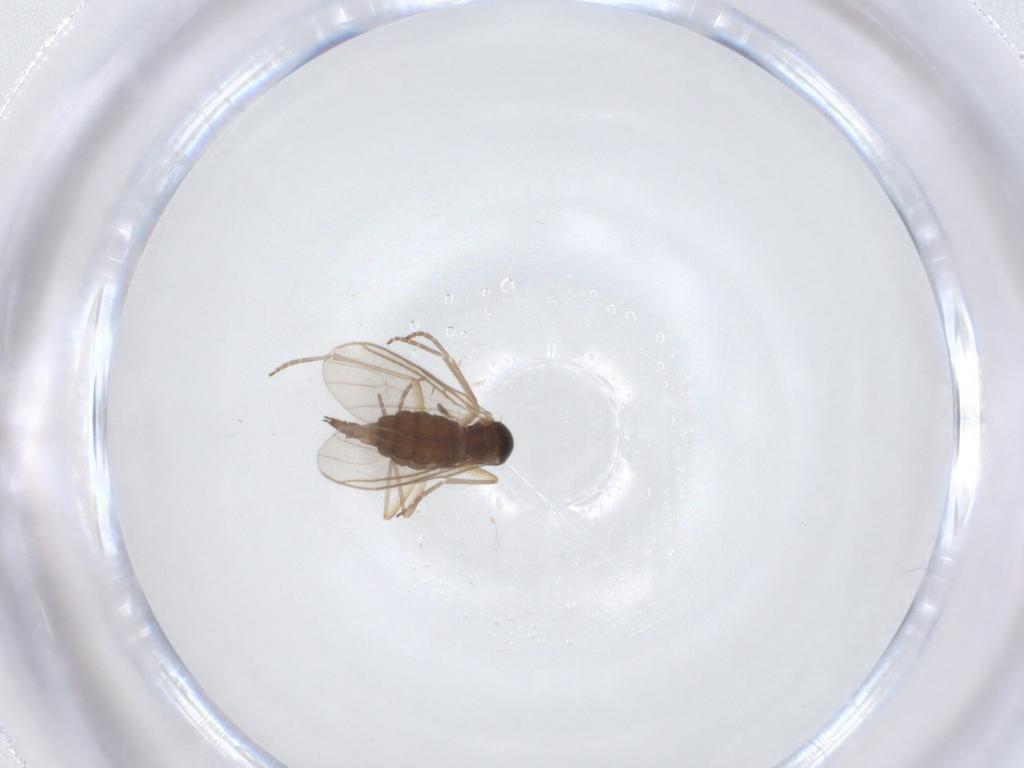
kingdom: Animalia
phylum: Arthropoda
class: Insecta
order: Diptera
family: Sciaridae
